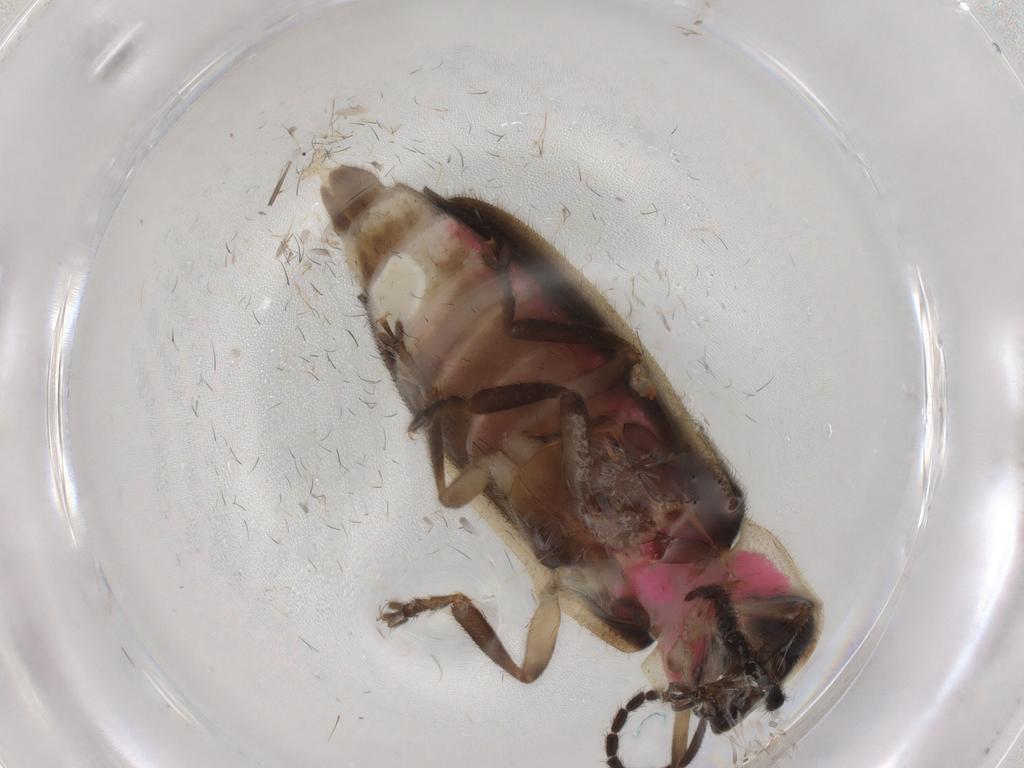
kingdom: Animalia
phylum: Arthropoda
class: Insecta
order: Coleoptera
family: Lampyridae
